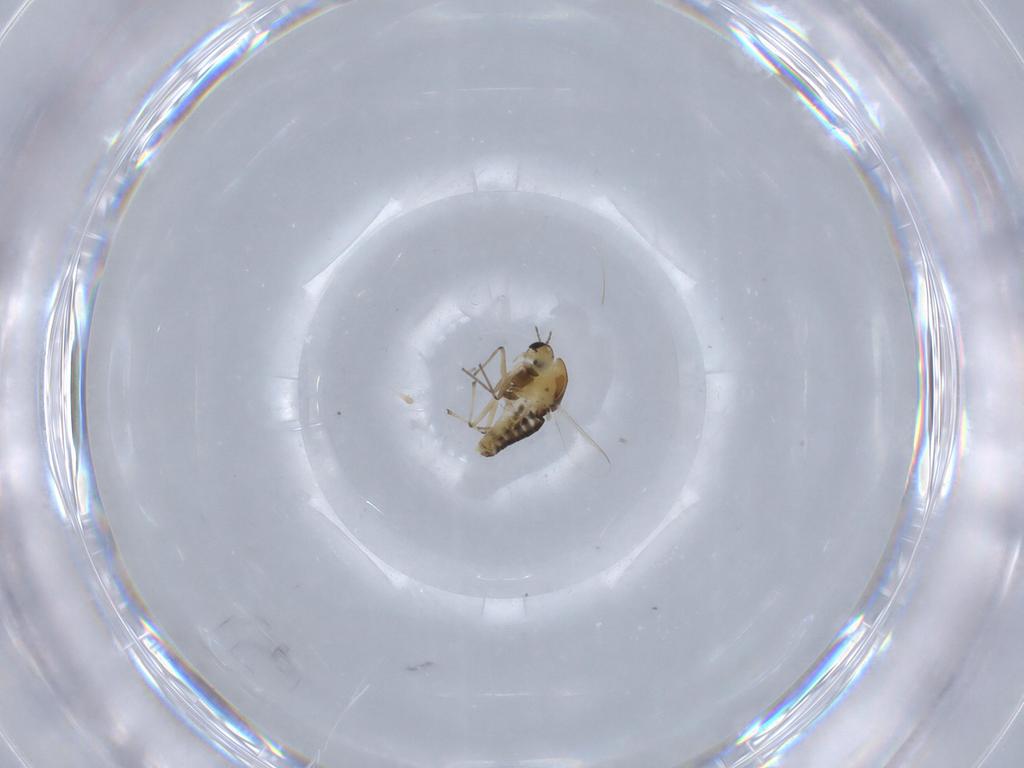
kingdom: Animalia
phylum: Arthropoda
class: Insecta
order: Diptera
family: Chironomidae
